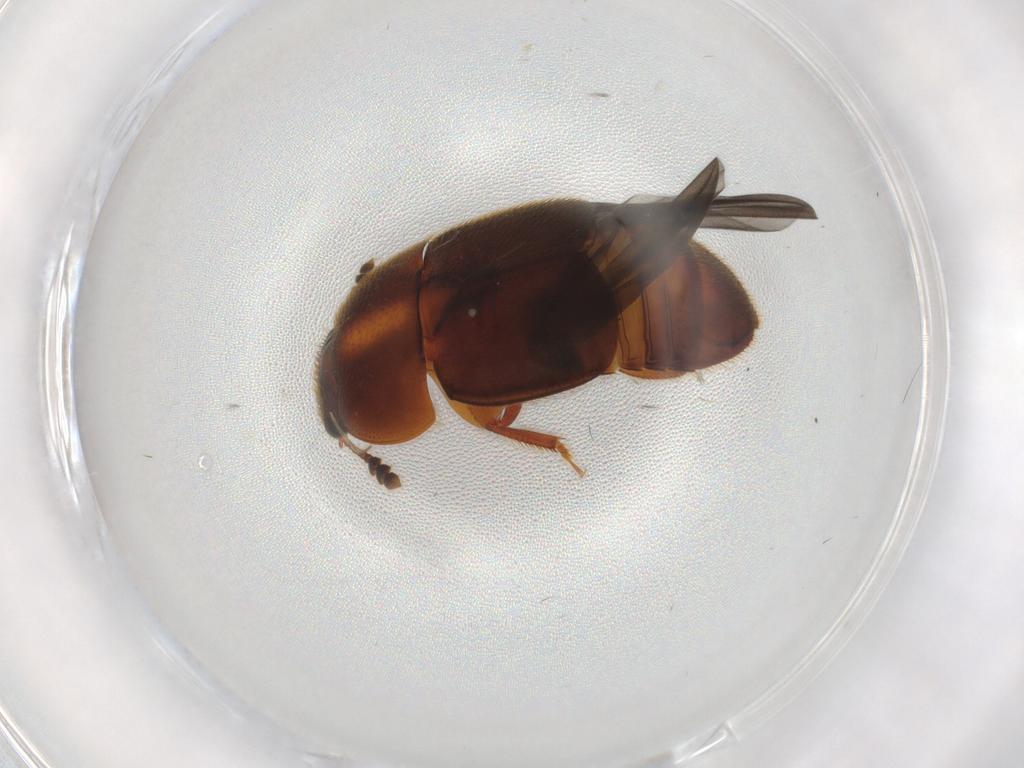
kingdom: Animalia
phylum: Arthropoda
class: Insecta
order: Coleoptera
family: Nitidulidae
